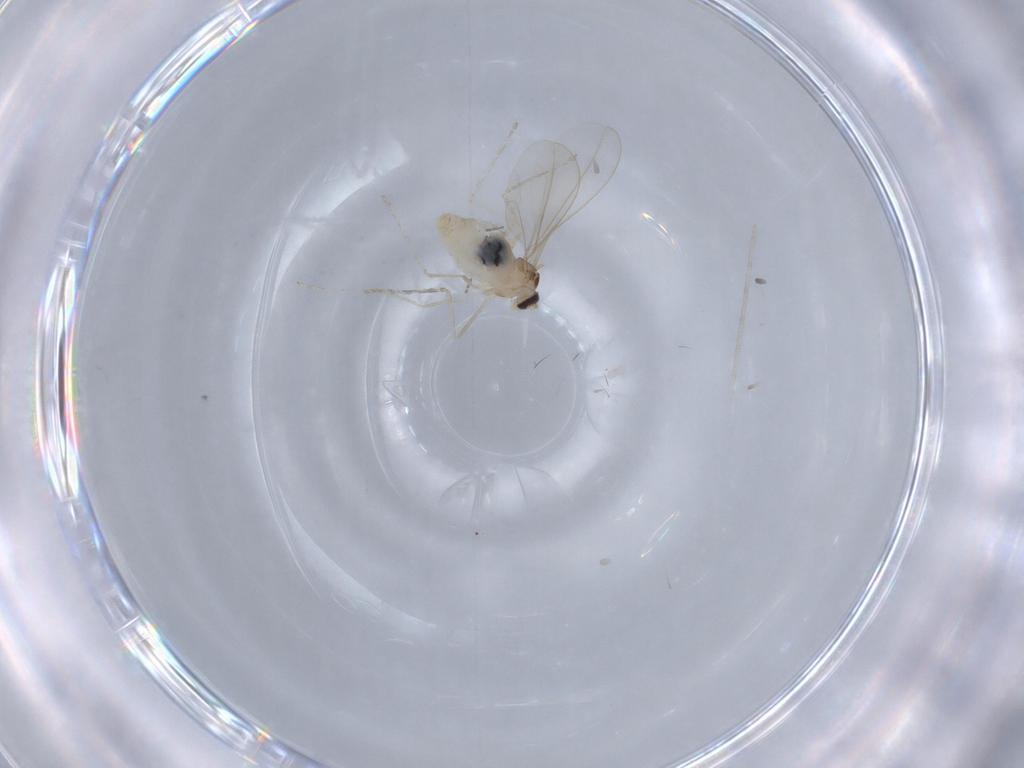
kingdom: Animalia
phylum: Arthropoda
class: Insecta
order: Diptera
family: Cecidomyiidae
